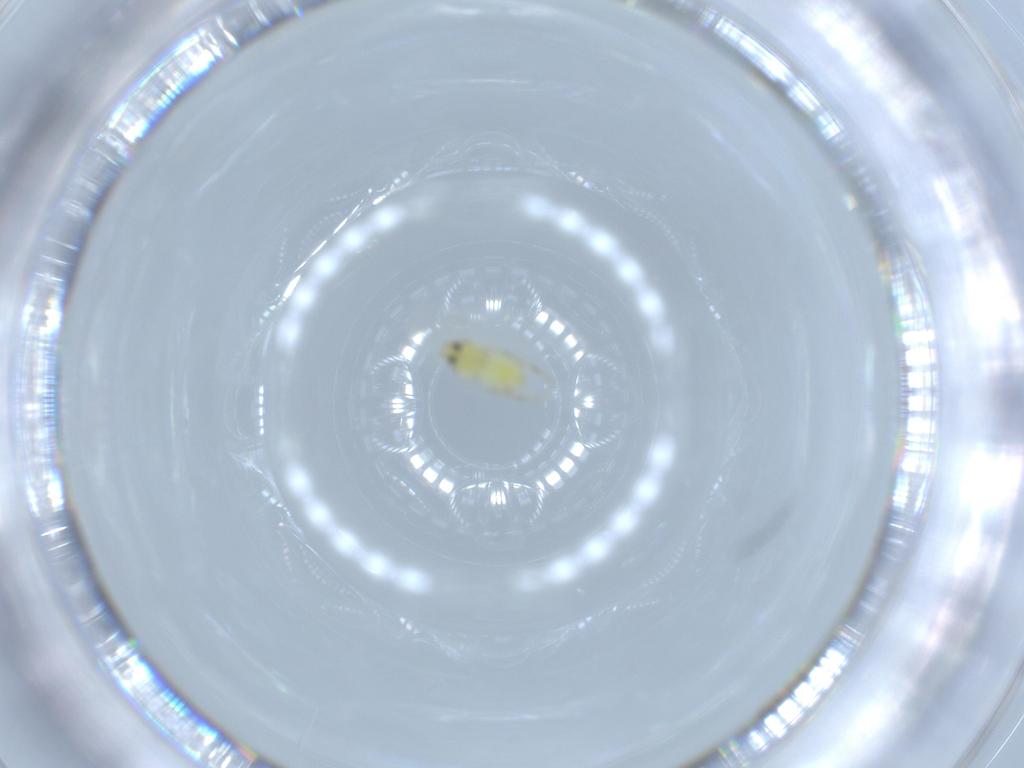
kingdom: Animalia
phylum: Arthropoda
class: Insecta
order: Hemiptera
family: Aleyrodidae
